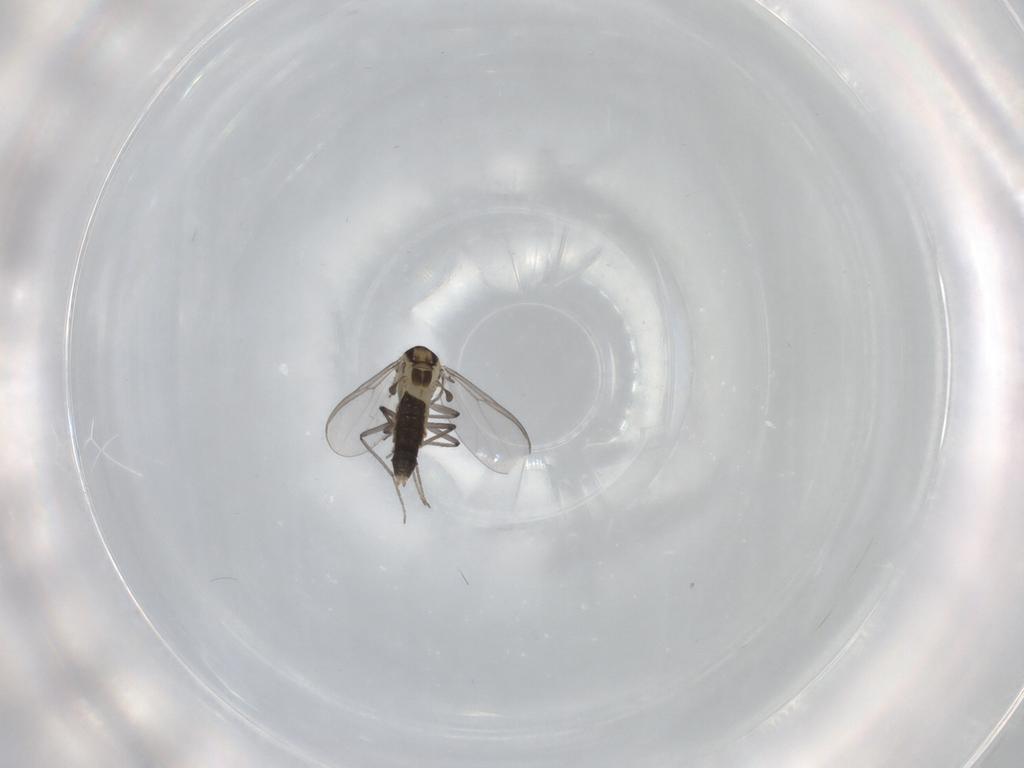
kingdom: Animalia
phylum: Arthropoda
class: Insecta
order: Diptera
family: Chironomidae
